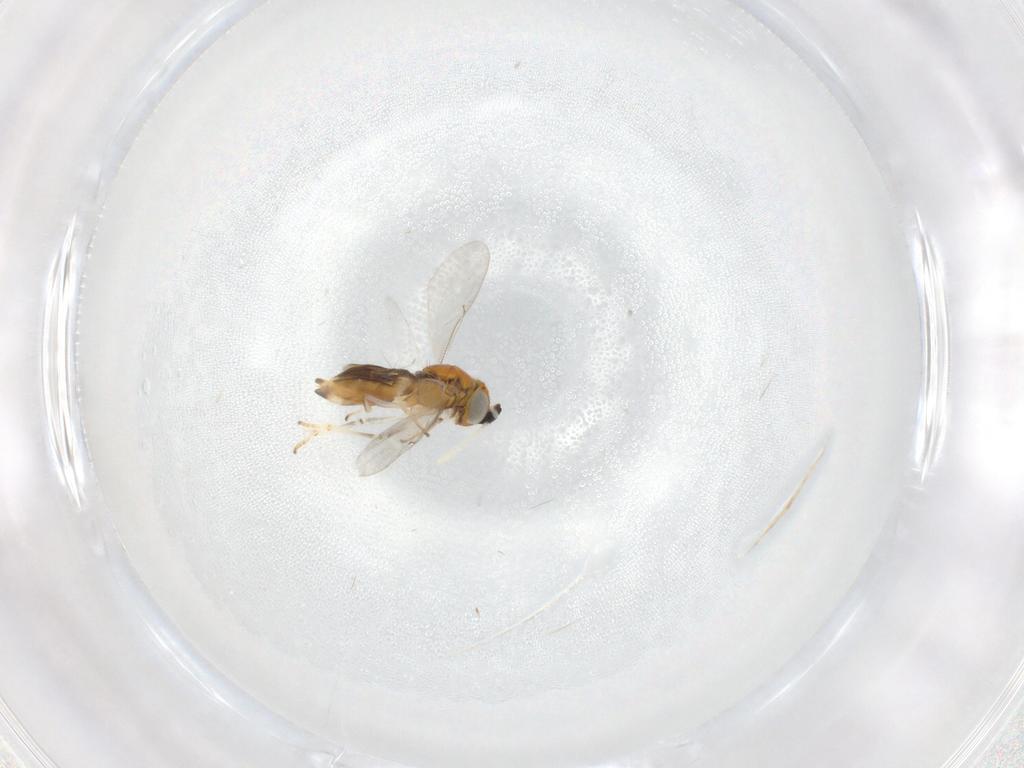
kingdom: Animalia
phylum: Arthropoda
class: Insecta
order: Hymenoptera
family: Encyrtidae
